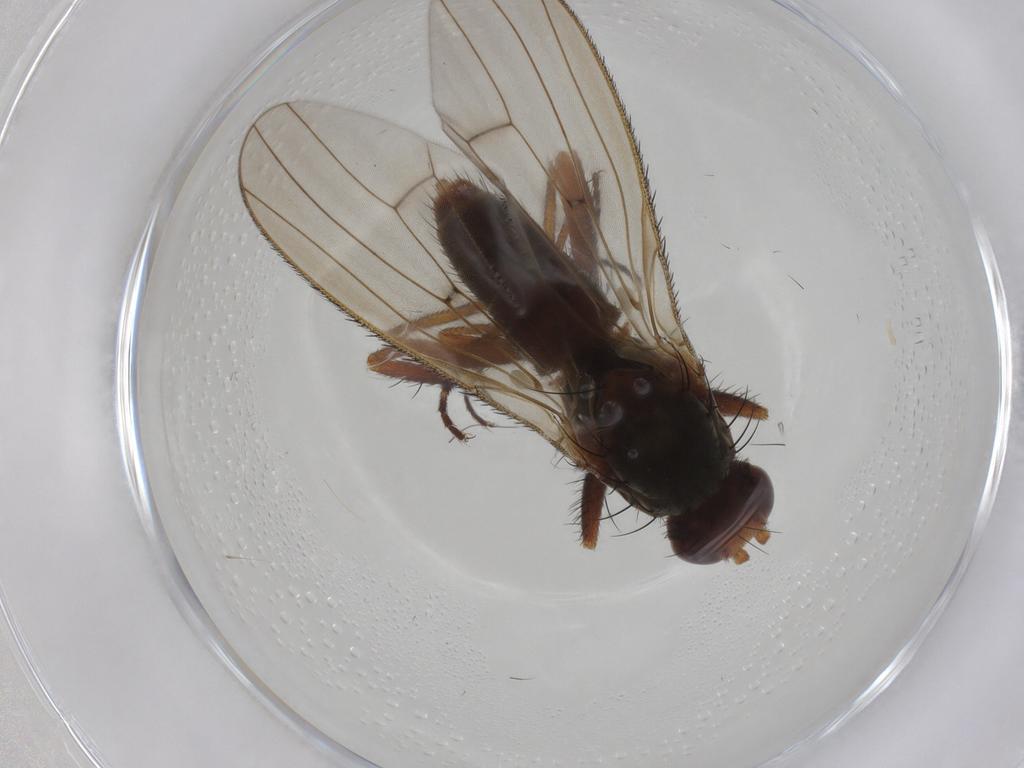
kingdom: Animalia
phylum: Arthropoda
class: Insecta
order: Diptera
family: Heleomyzidae
